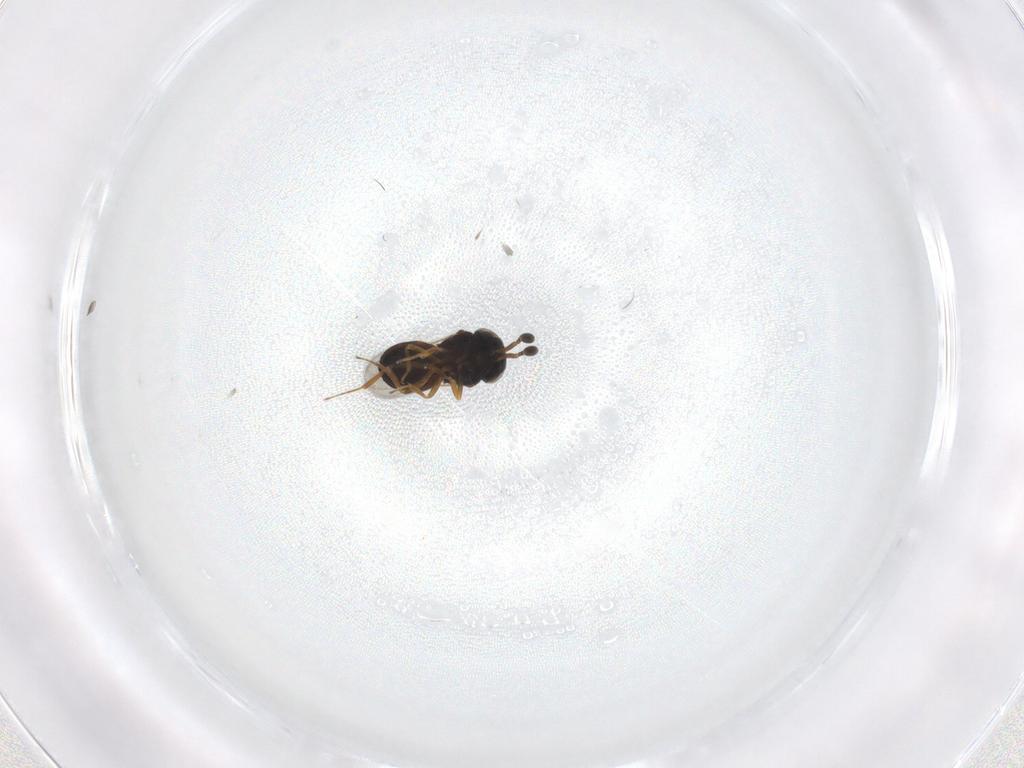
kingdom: Animalia
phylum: Arthropoda
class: Insecta
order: Hymenoptera
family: Scelionidae
